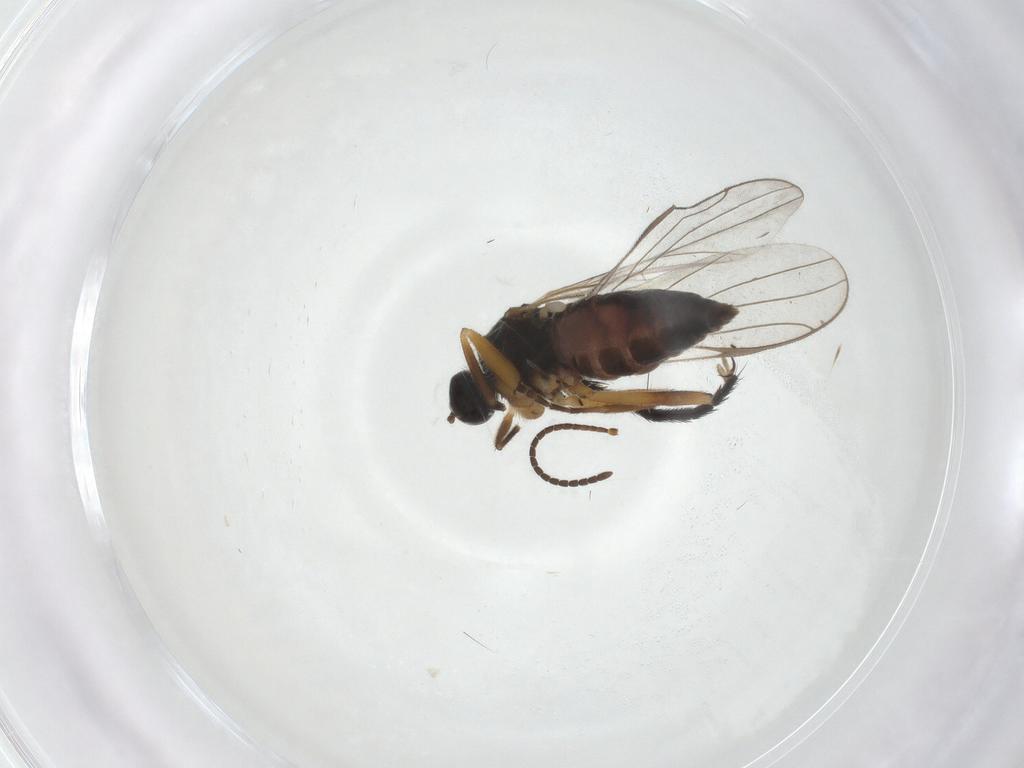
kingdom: Animalia
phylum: Arthropoda
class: Insecta
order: Diptera
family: Hybotidae
